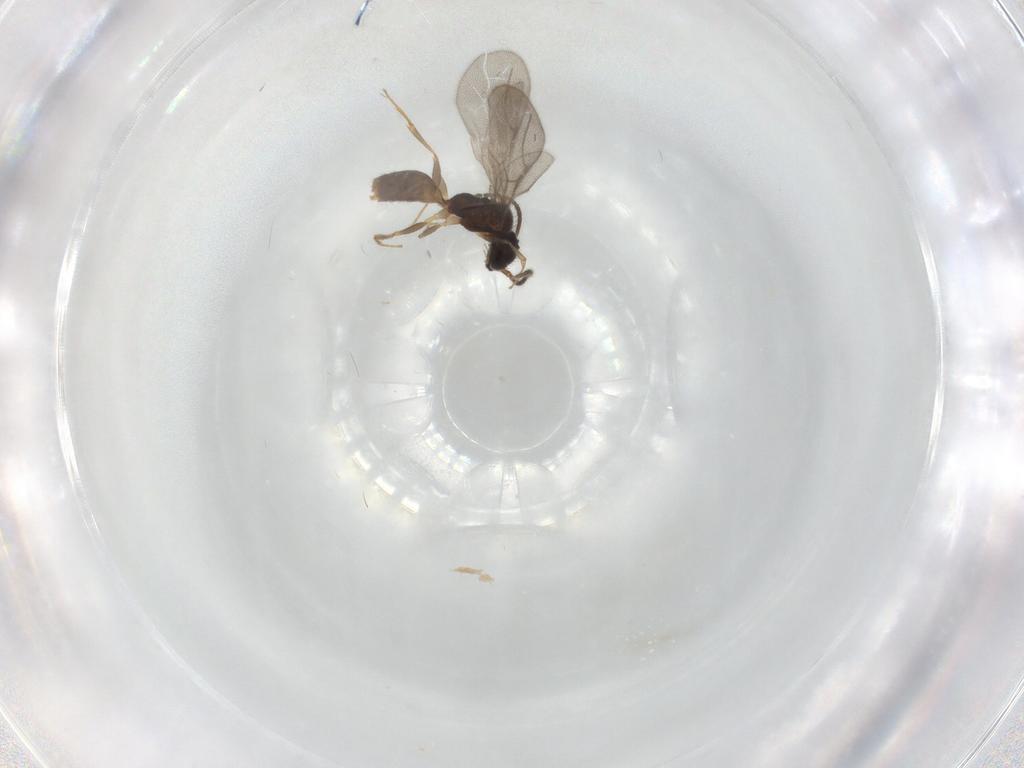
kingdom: Animalia
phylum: Arthropoda
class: Insecta
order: Hymenoptera
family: Bethylidae
